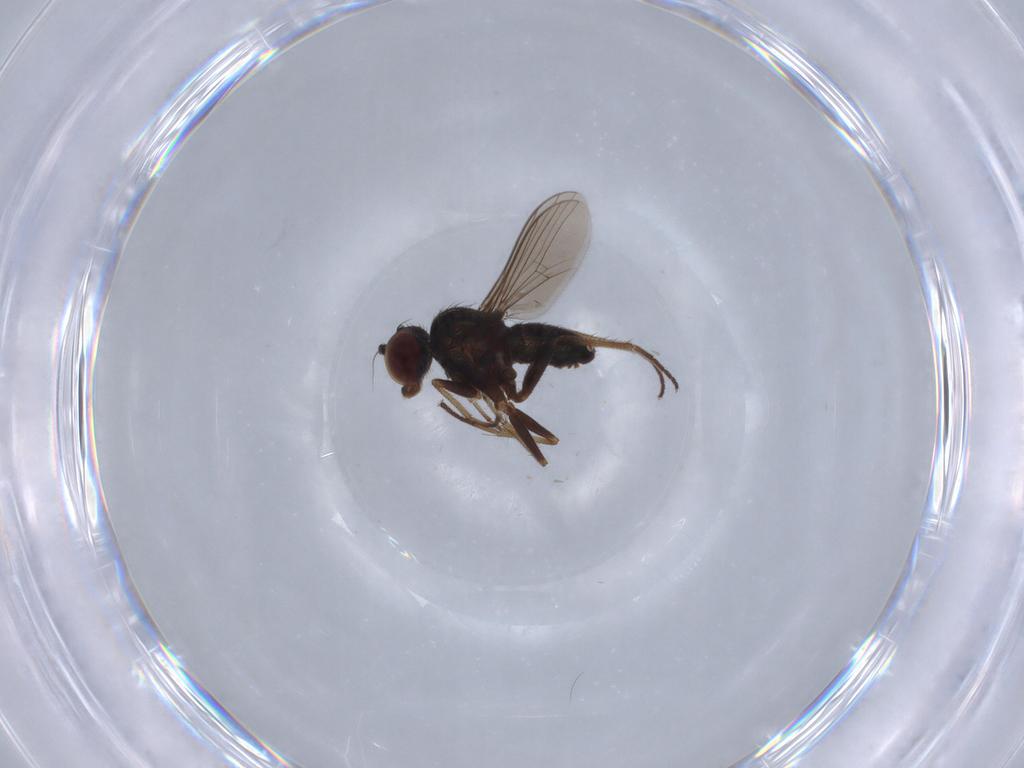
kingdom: Animalia
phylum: Arthropoda
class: Insecta
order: Diptera
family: Dolichopodidae
